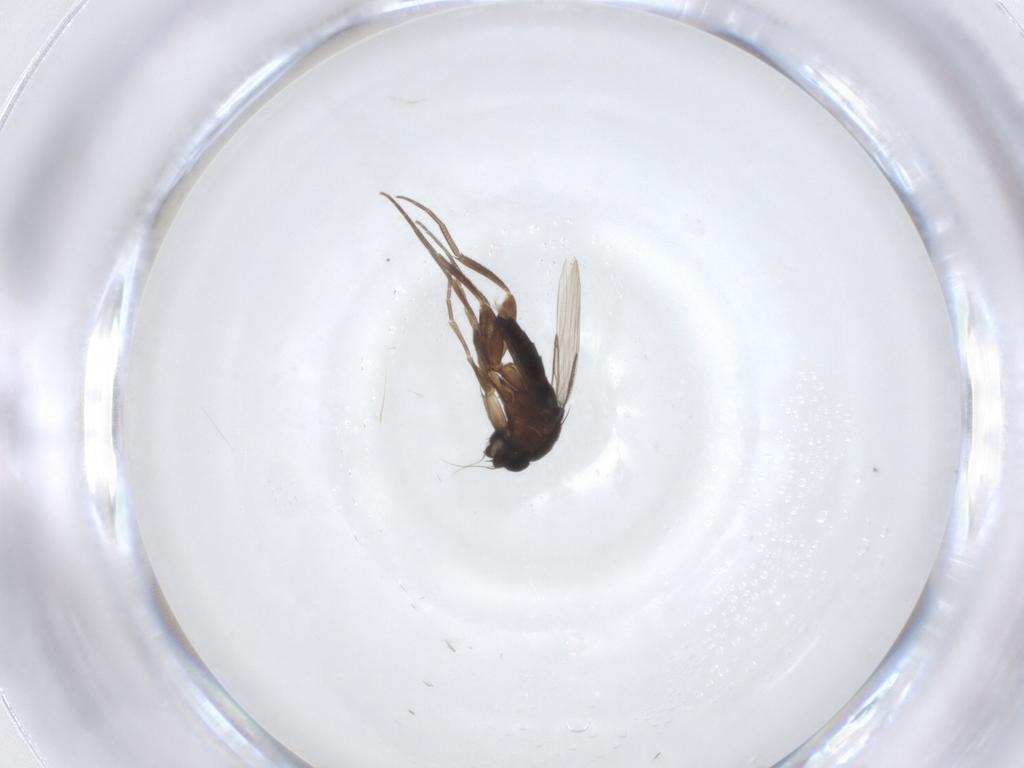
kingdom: Animalia
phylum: Arthropoda
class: Insecta
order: Diptera
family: Phoridae
